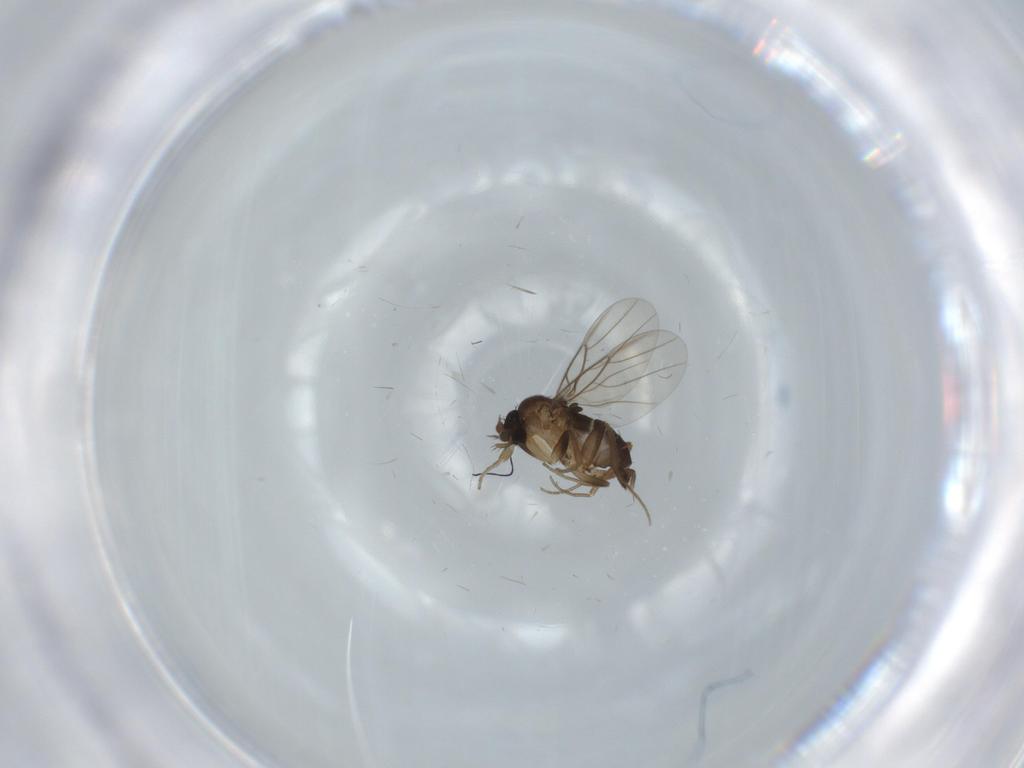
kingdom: Animalia
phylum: Arthropoda
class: Insecta
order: Diptera
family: Phoridae
